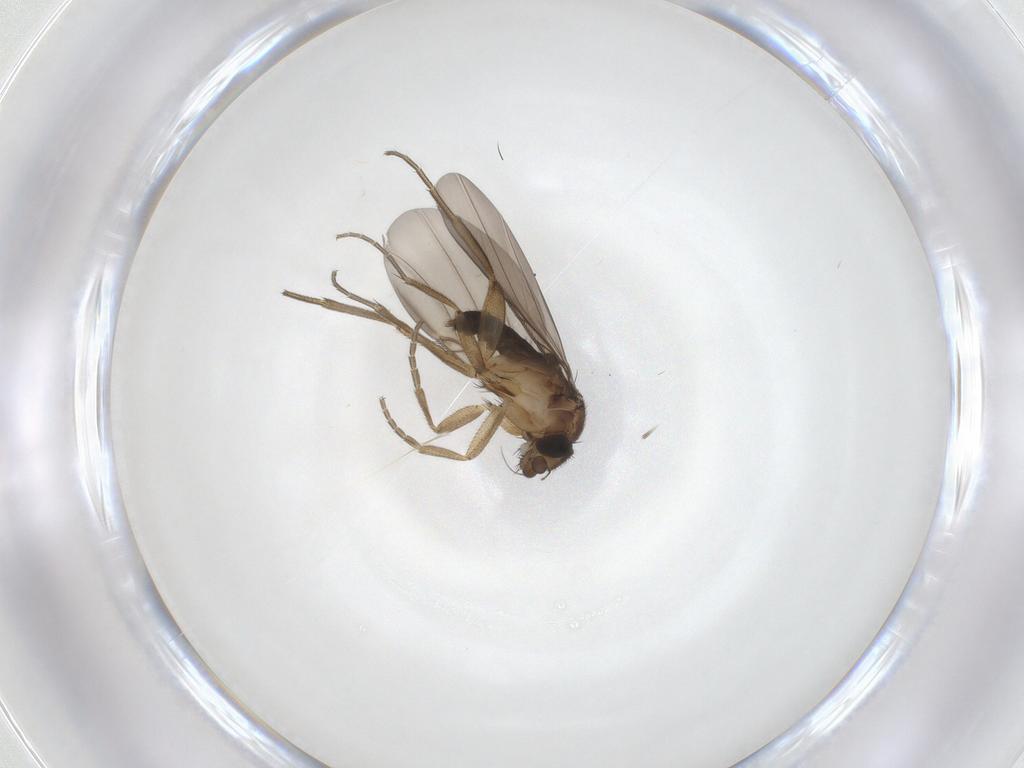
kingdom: Animalia
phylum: Arthropoda
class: Insecta
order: Diptera
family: Phoridae
